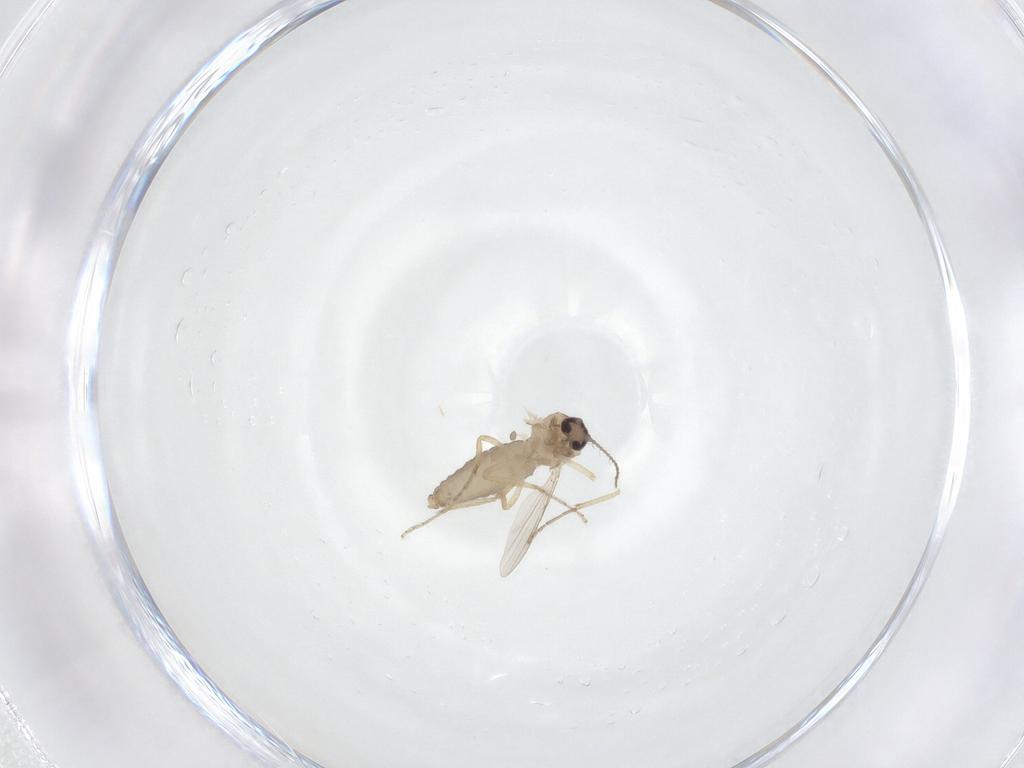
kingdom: Animalia
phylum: Arthropoda
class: Insecta
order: Diptera
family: Ceratopogonidae
